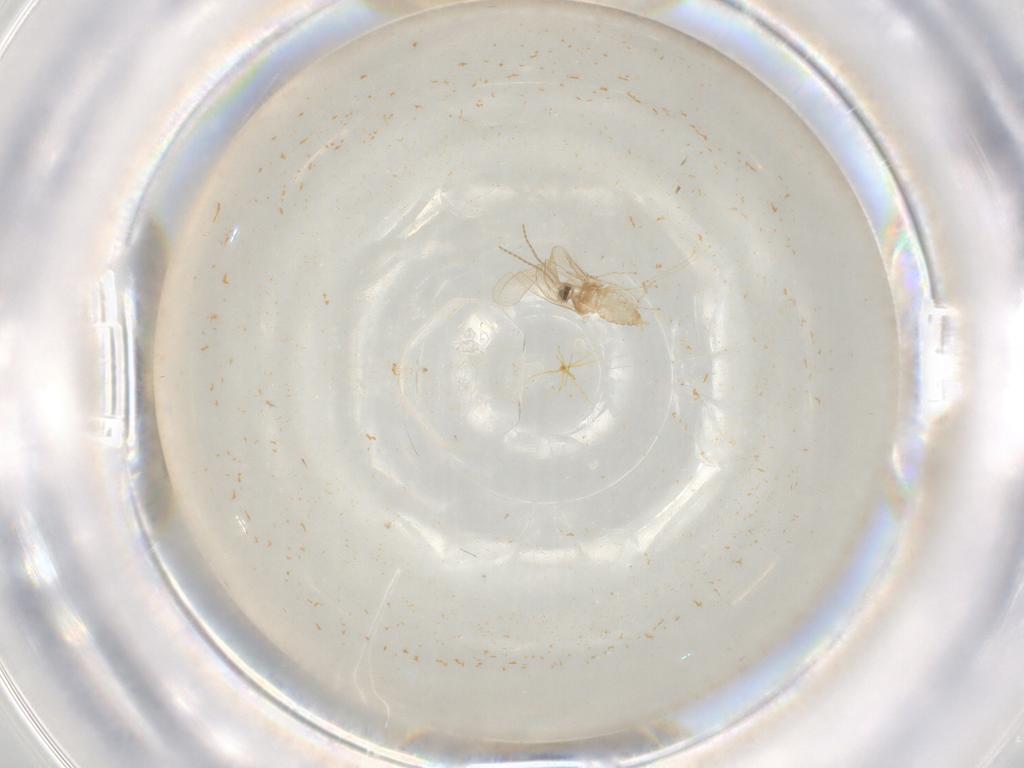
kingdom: Animalia
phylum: Arthropoda
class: Insecta
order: Diptera
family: Cecidomyiidae
